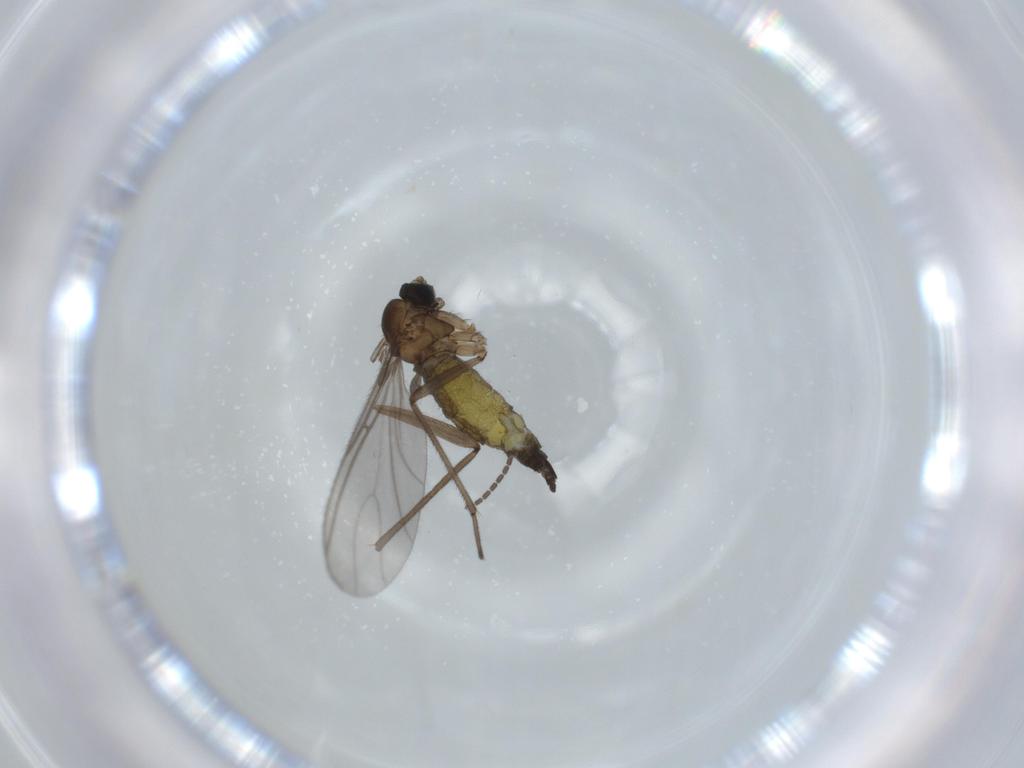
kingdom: Animalia
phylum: Arthropoda
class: Insecta
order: Diptera
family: Sciaridae
